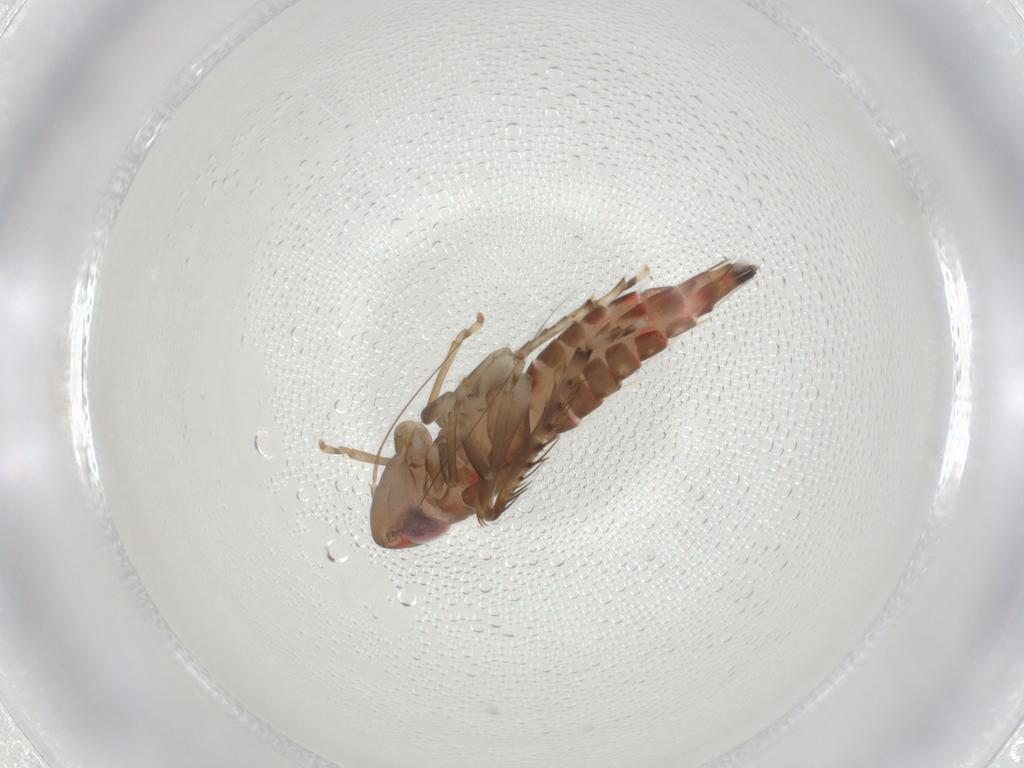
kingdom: Animalia
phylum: Arthropoda
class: Insecta
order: Hemiptera
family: Cicadellidae
